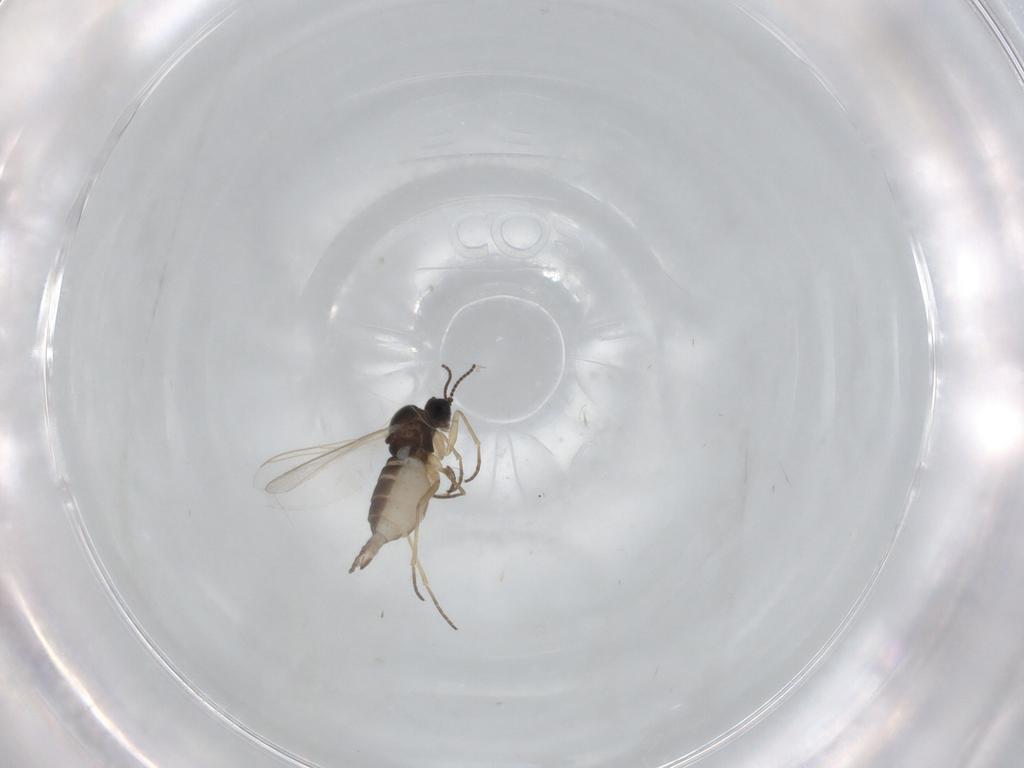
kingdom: Animalia
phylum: Arthropoda
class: Insecta
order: Diptera
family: Sciaridae
